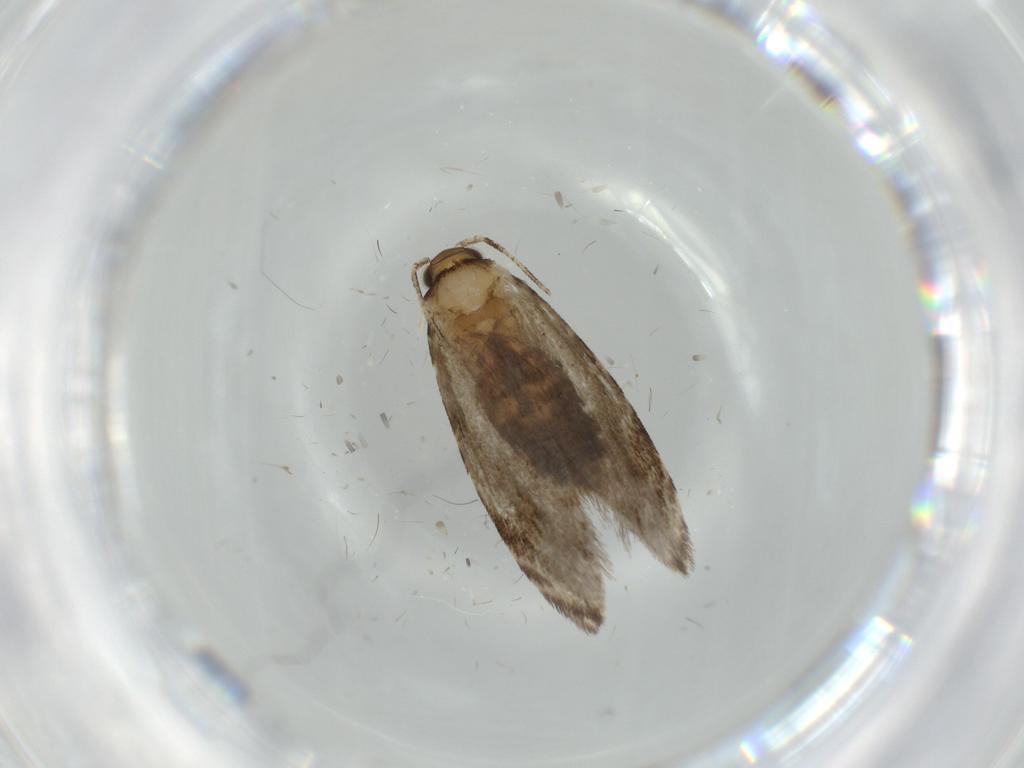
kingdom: Animalia
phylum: Arthropoda
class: Insecta
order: Lepidoptera
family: Tineidae
